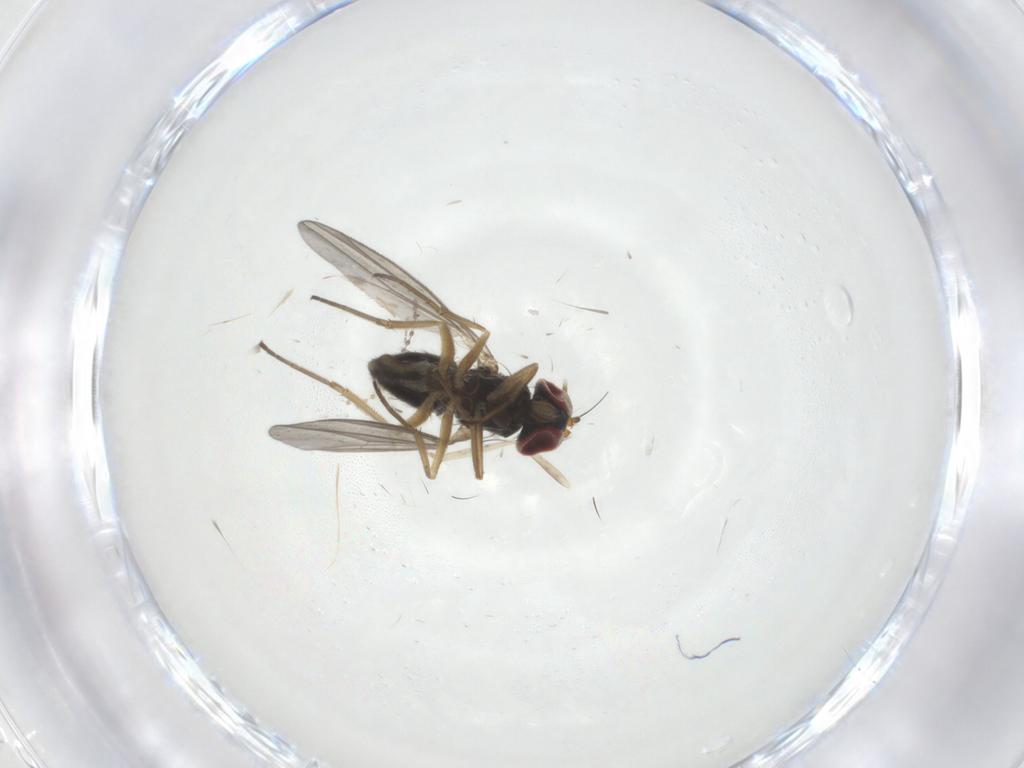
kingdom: Animalia
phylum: Arthropoda
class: Insecta
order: Diptera
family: Cecidomyiidae
